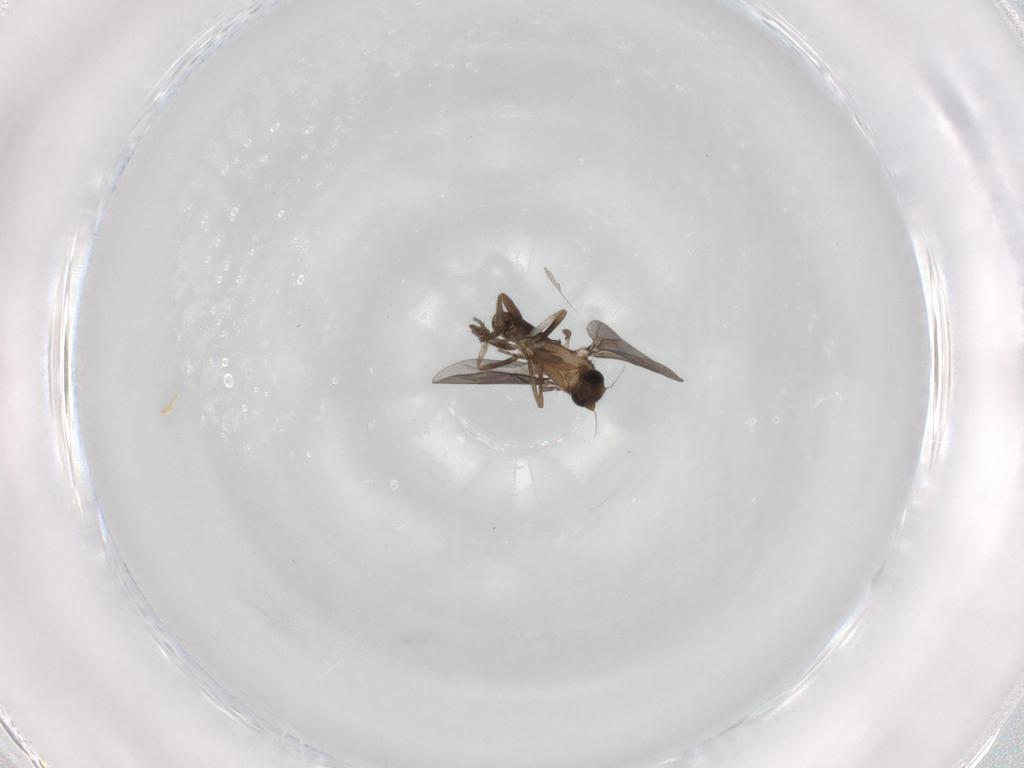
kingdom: Animalia
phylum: Arthropoda
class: Insecta
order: Diptera
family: Phoridae
